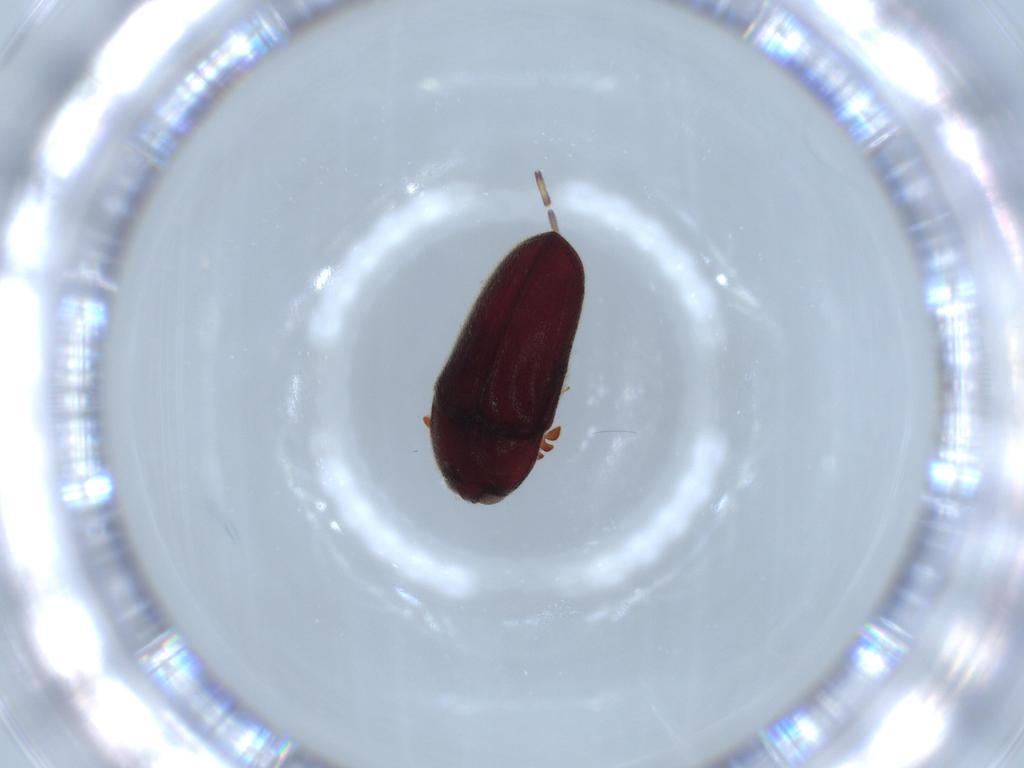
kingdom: Animalia
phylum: Arthropoda
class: Insecta
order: Coleoptera
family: Throscidae
